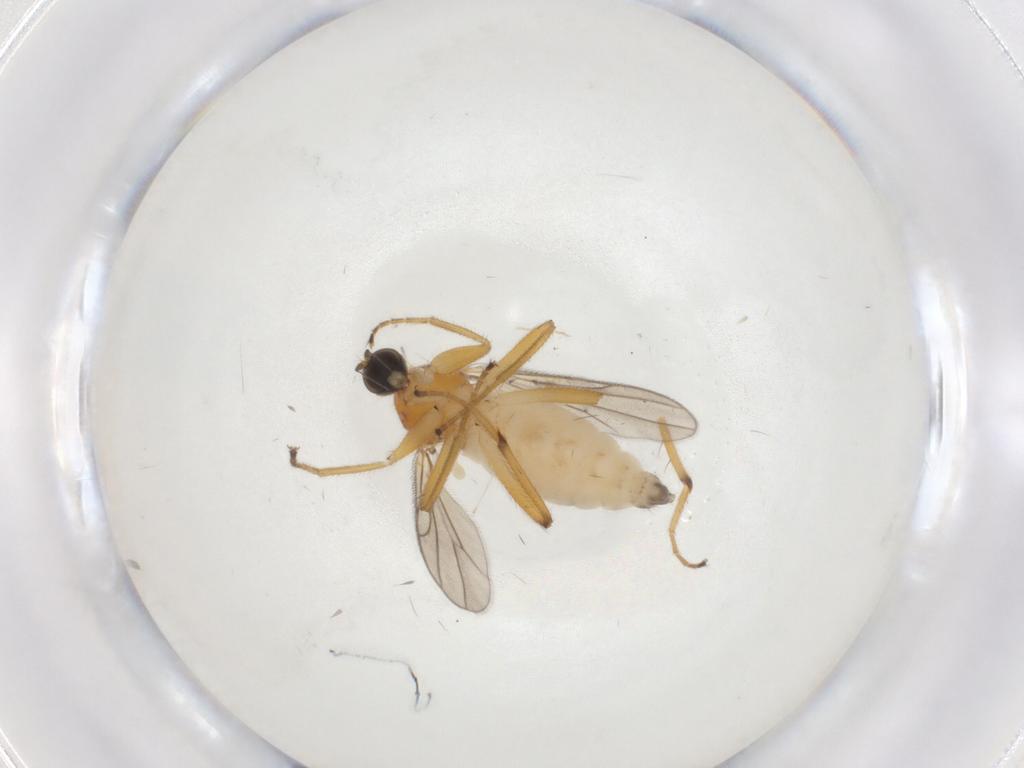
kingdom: Animalia
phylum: Arthropoda
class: Insecta
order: Diptera
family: Hybotidae
